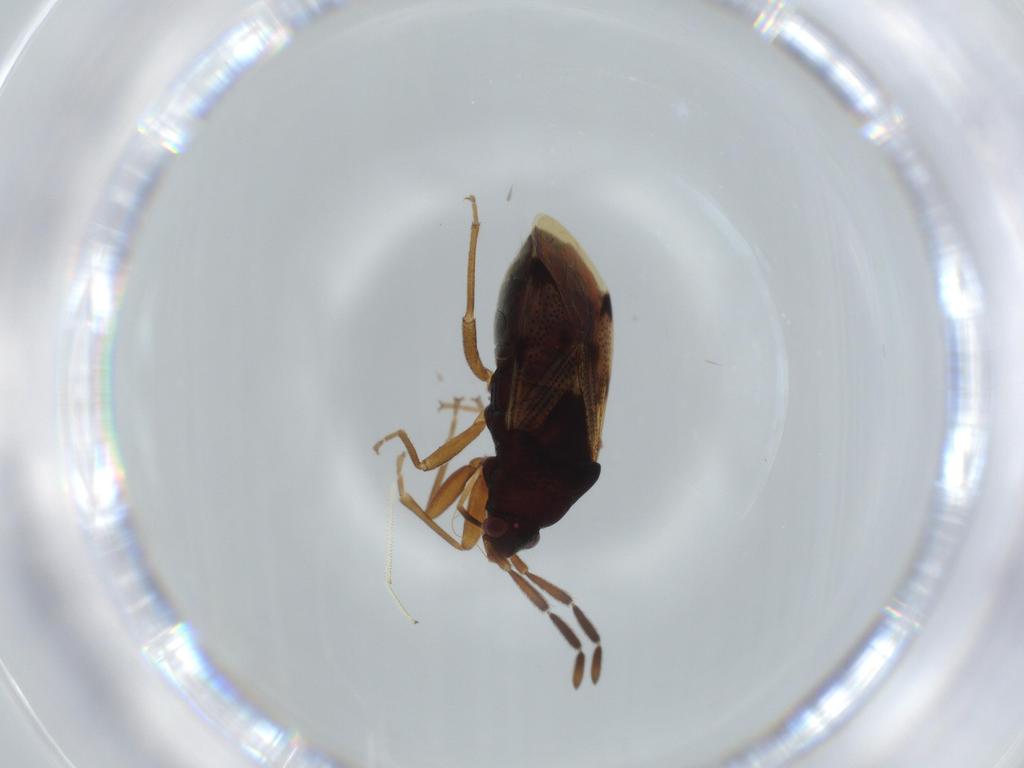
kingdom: Animalia
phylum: Arthropoda
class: Insecta
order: Hemiptera
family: Rhyparochromidae
